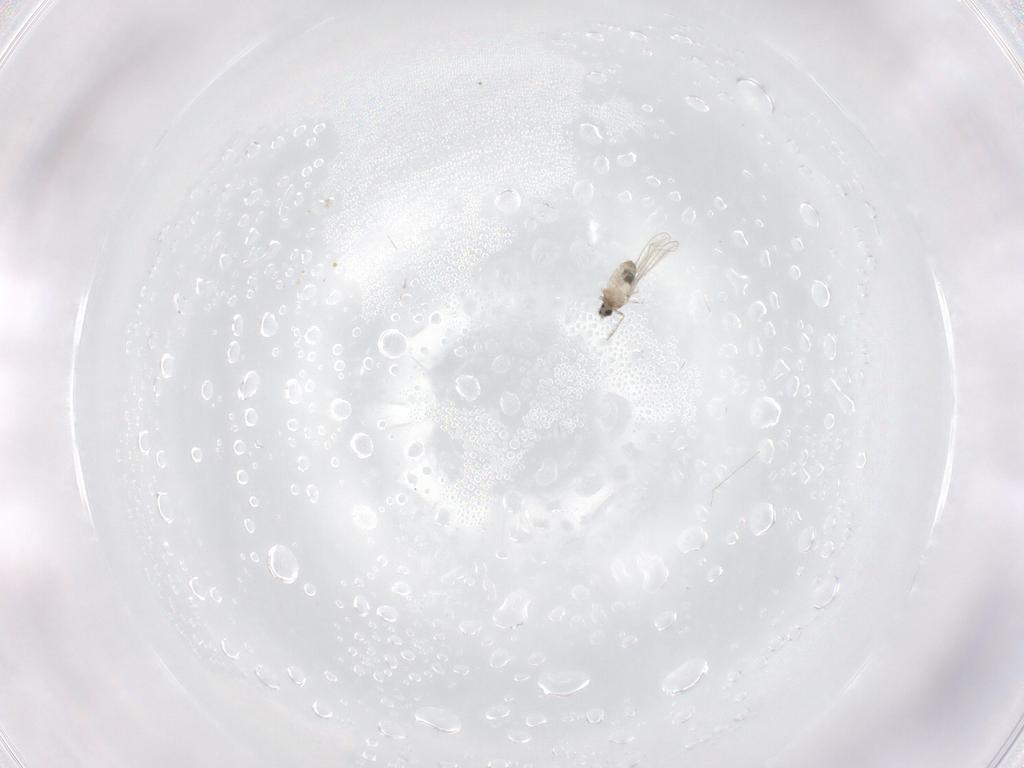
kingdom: Animalia
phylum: Arthropoda
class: Insecta
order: Diptera
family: Cecidomyiidae
